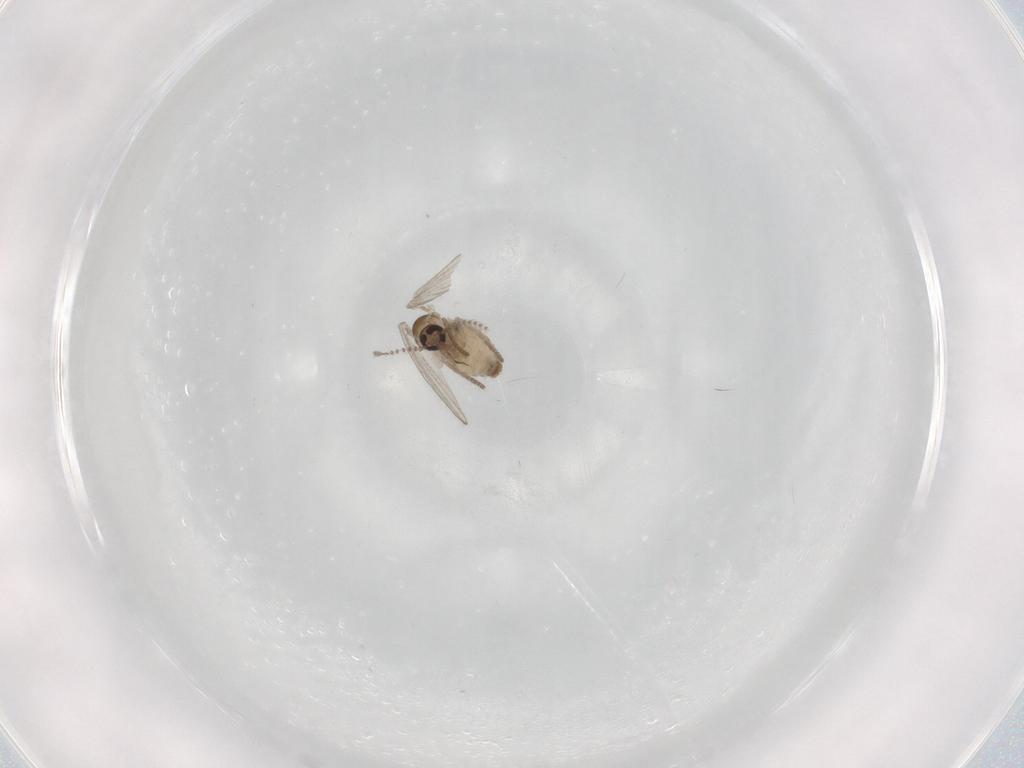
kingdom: Animalia
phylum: Arthropoda
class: Insecta
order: Diptera
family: Psychodidae
